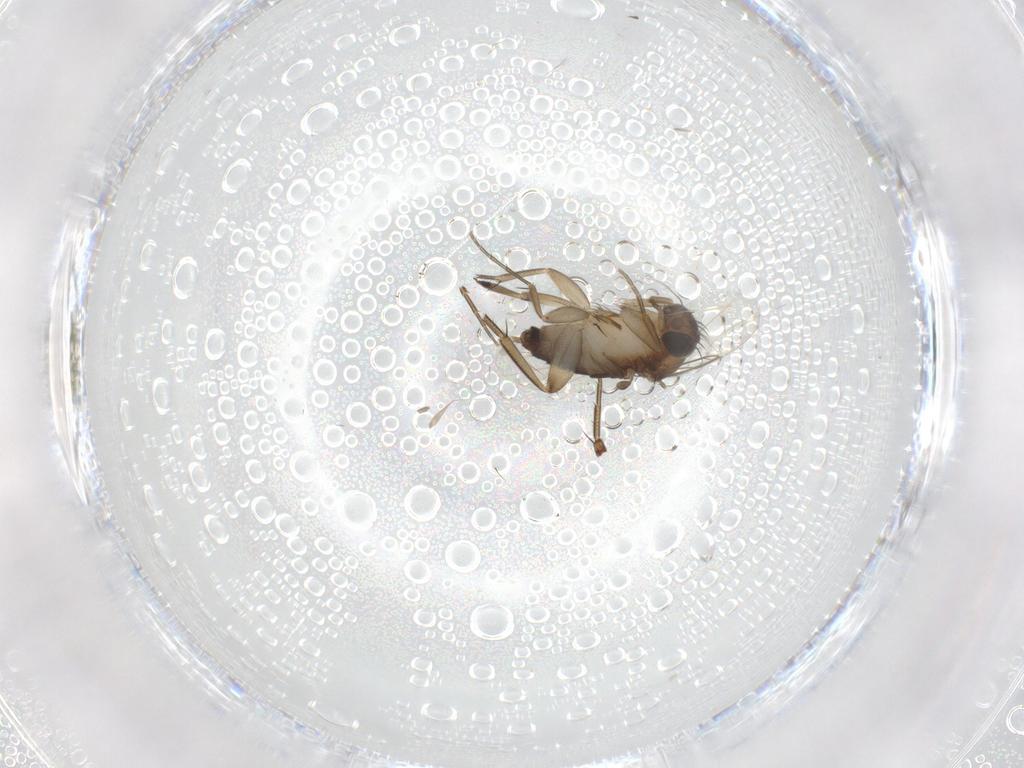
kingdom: Animalia
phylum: Arthropoda
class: Insecta
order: Diptera
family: Phoridae
